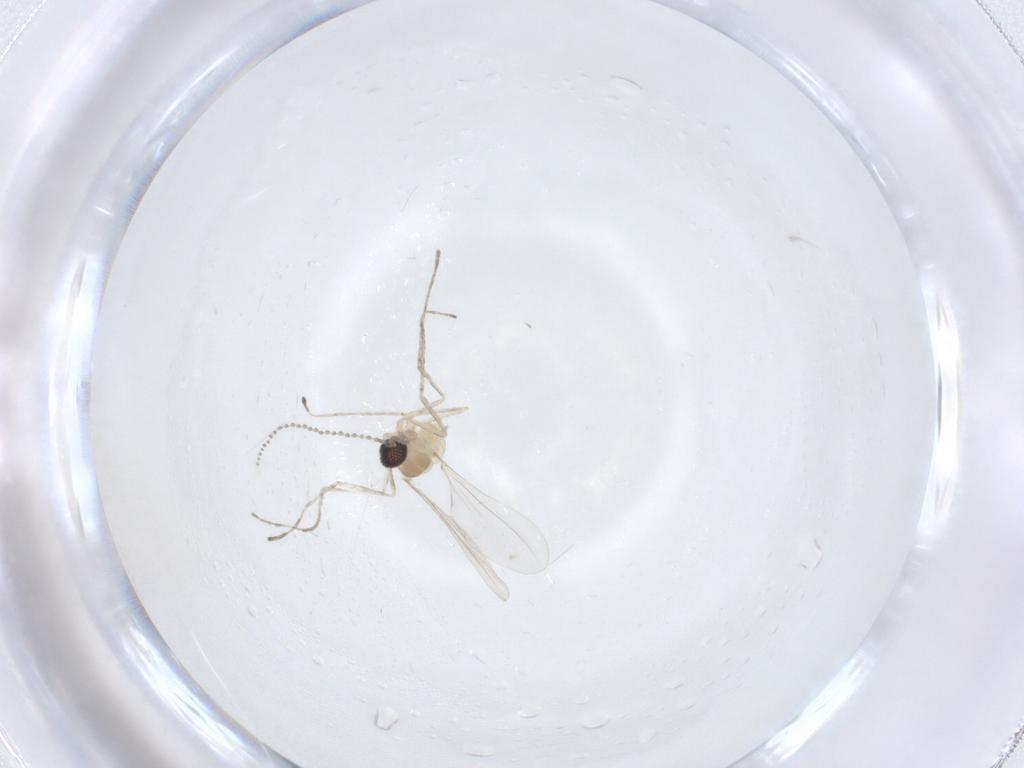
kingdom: Animalia
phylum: Arthropoda
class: Insecta
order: Diptera
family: Cecidomyiidae
